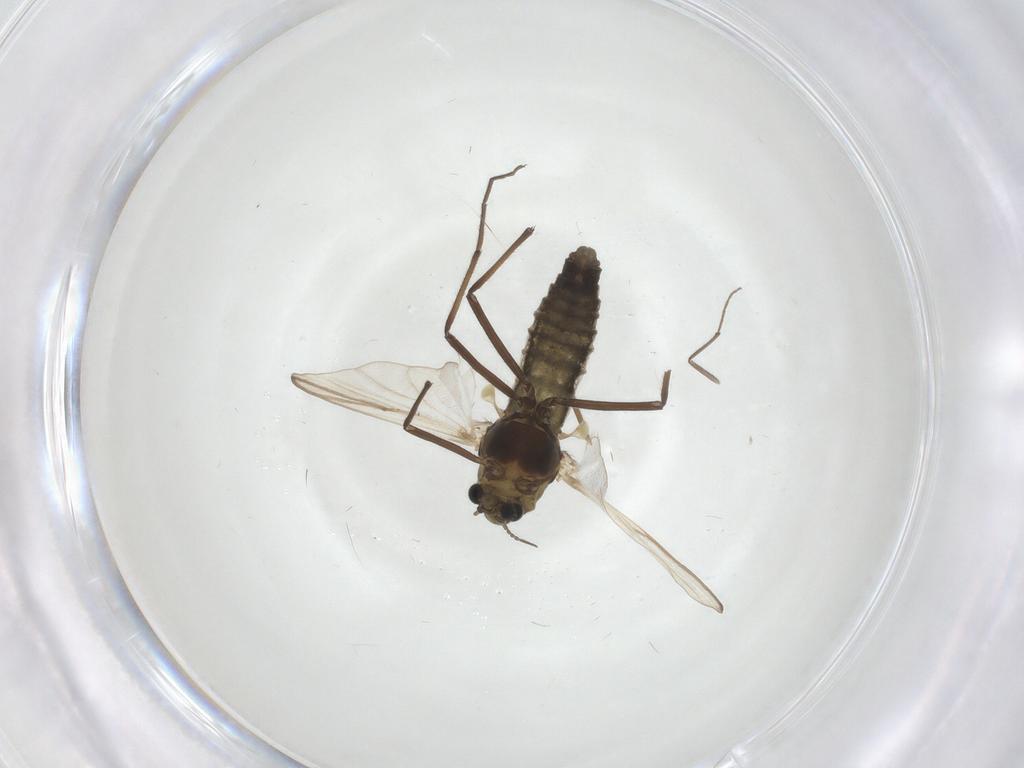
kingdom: Animalia
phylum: Arthropoda
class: Insecta
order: Diptera
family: Chironomidae
